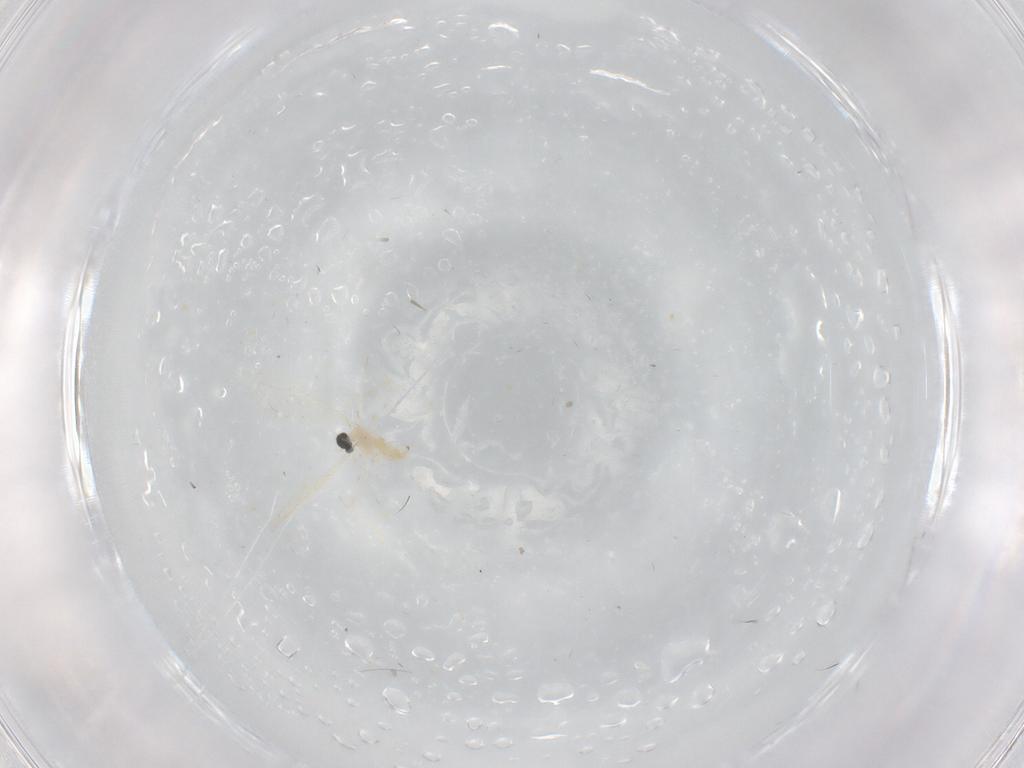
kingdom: Animalia
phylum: Arthropoda
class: Insecta
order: Diptera
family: Cecidomyiidae
